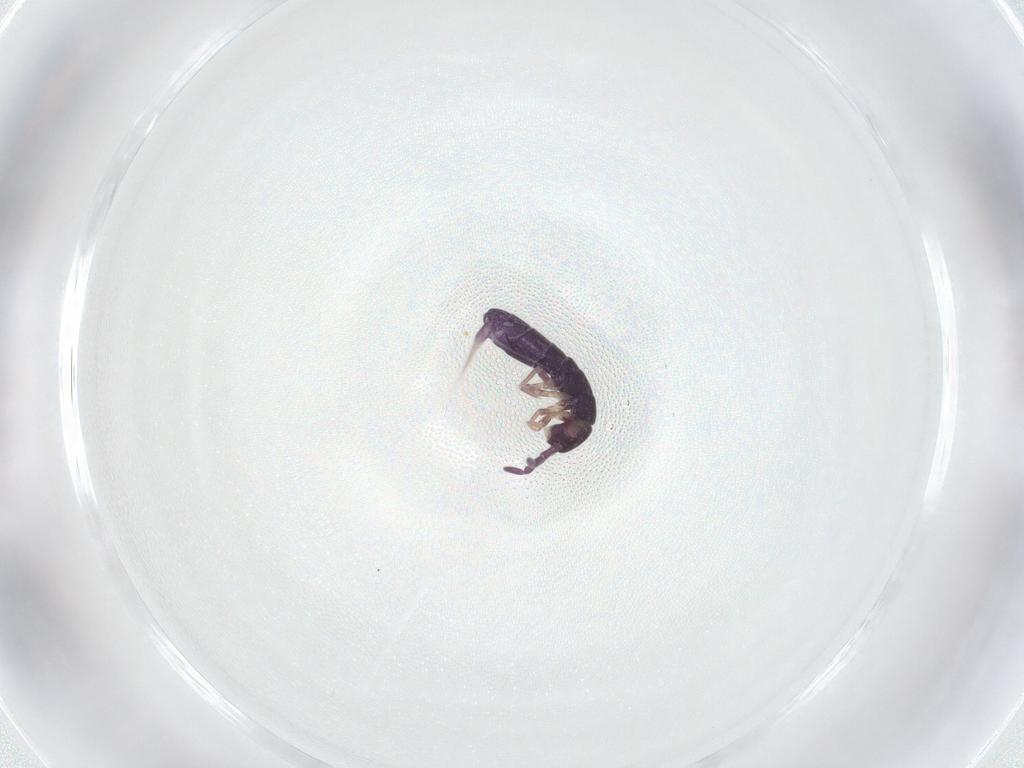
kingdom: Animalia
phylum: Arthropoda
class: Collembola
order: Entomobryomorpha
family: Isotomidae
